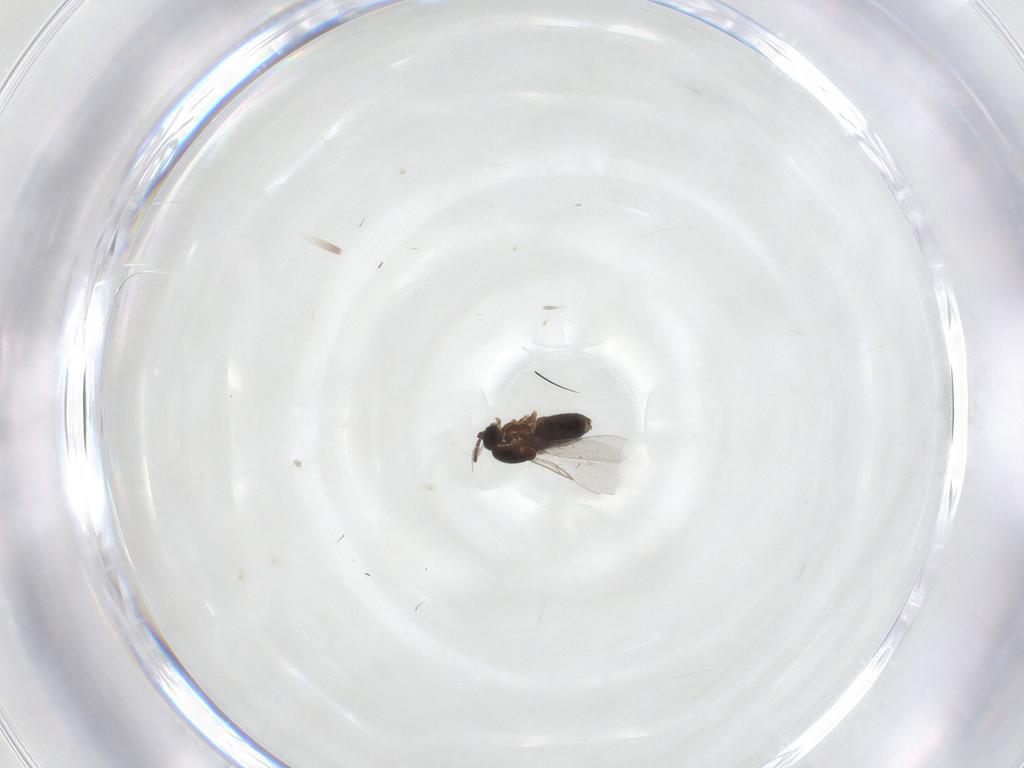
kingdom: Animalia
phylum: Arthropoda
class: Insecta
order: Diptera
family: Scatopsidae
